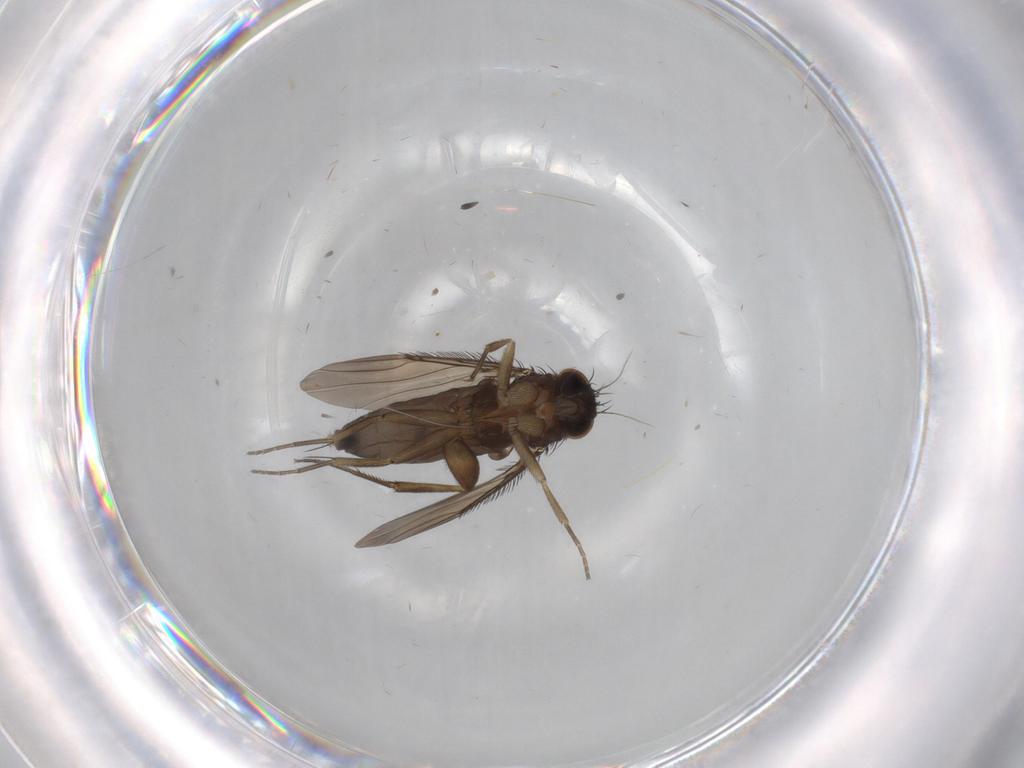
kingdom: Animalia
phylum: Arthropoda
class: Insecta
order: Diptera
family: Phoridae
